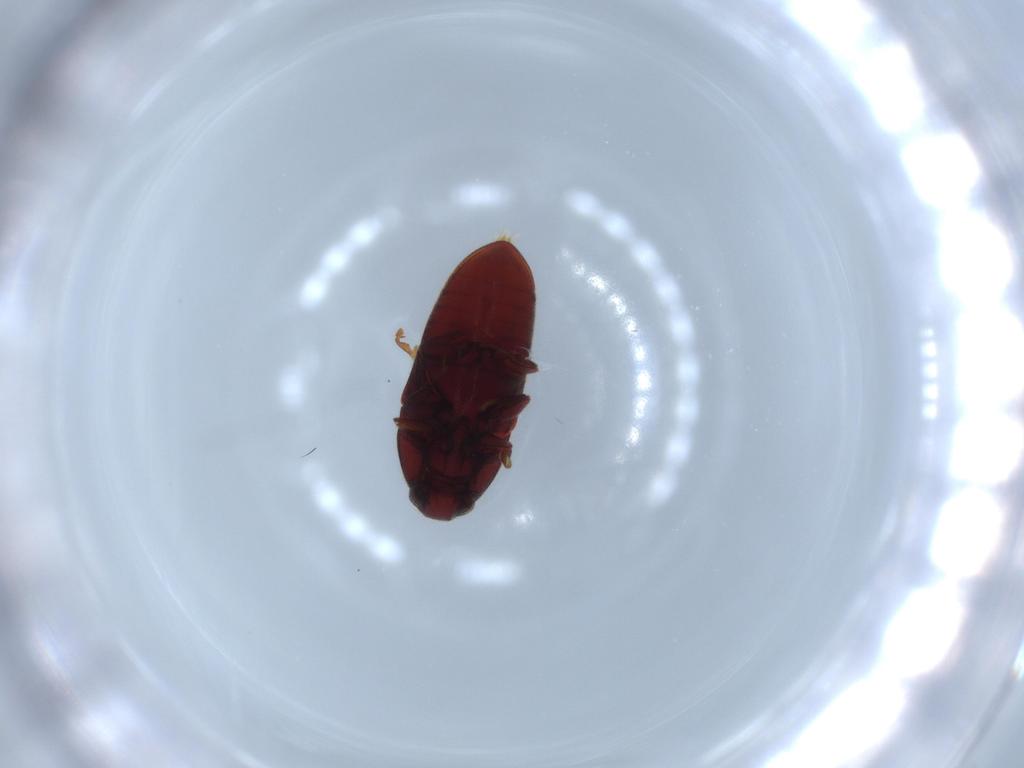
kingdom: Animalia
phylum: Arthropoda
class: Insecta
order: Coleoptera
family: Throscidae
